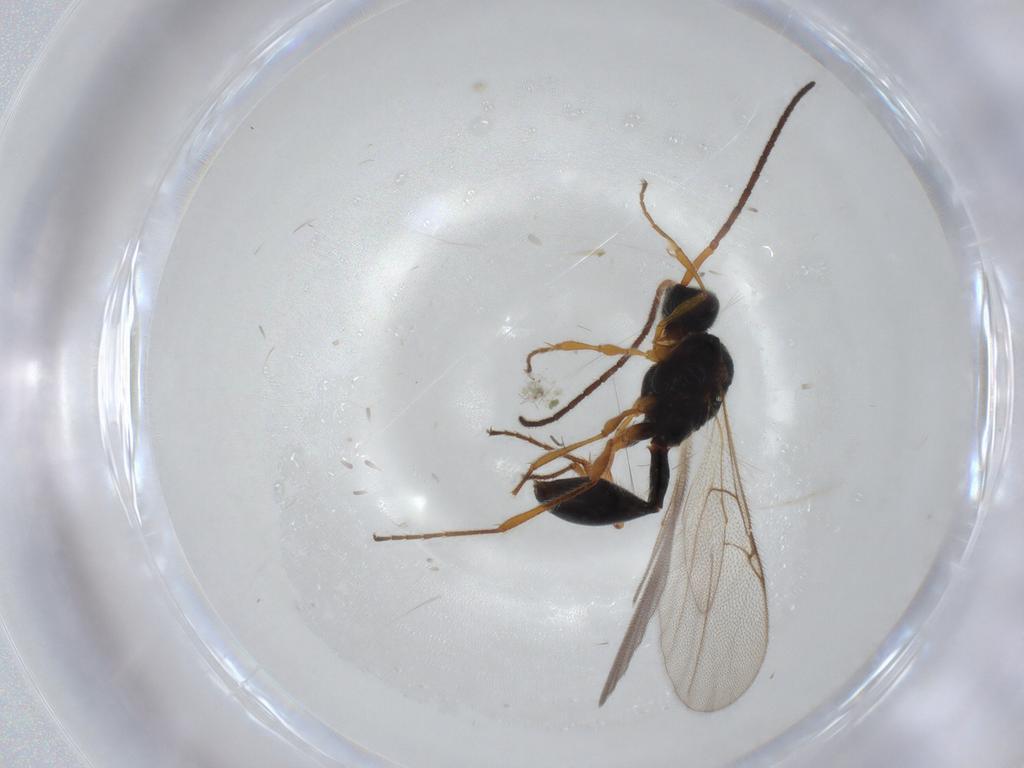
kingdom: Animalia
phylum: Arthropoda
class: Insecta
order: Hymenoptera
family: Diapriidae
